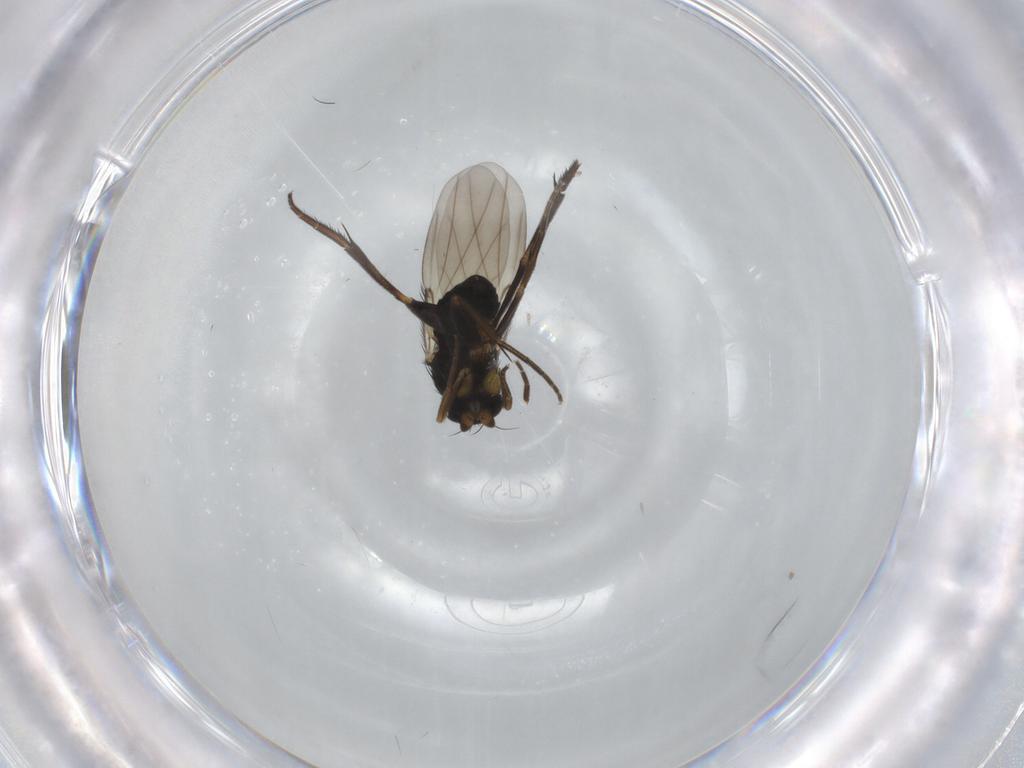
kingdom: Animalia
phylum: Arthropoda
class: Insecta
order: Diptera
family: Phoridae
